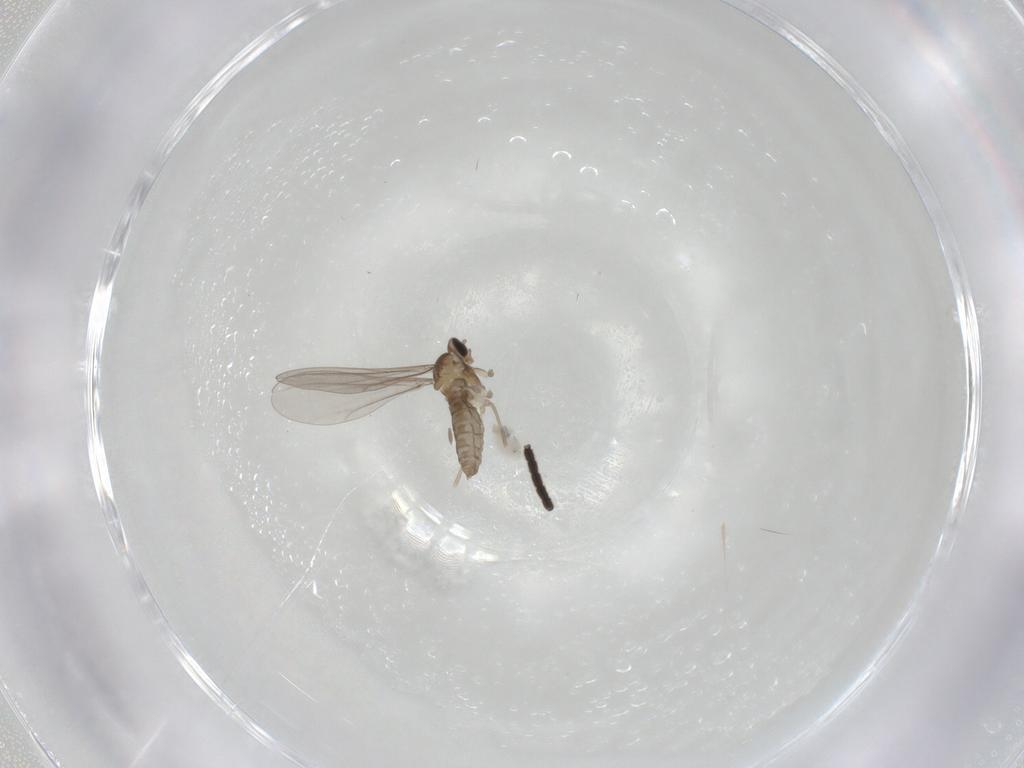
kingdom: Animalia
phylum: Arthropoda
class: Insecta
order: Diptera
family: Cecidomyiidae
